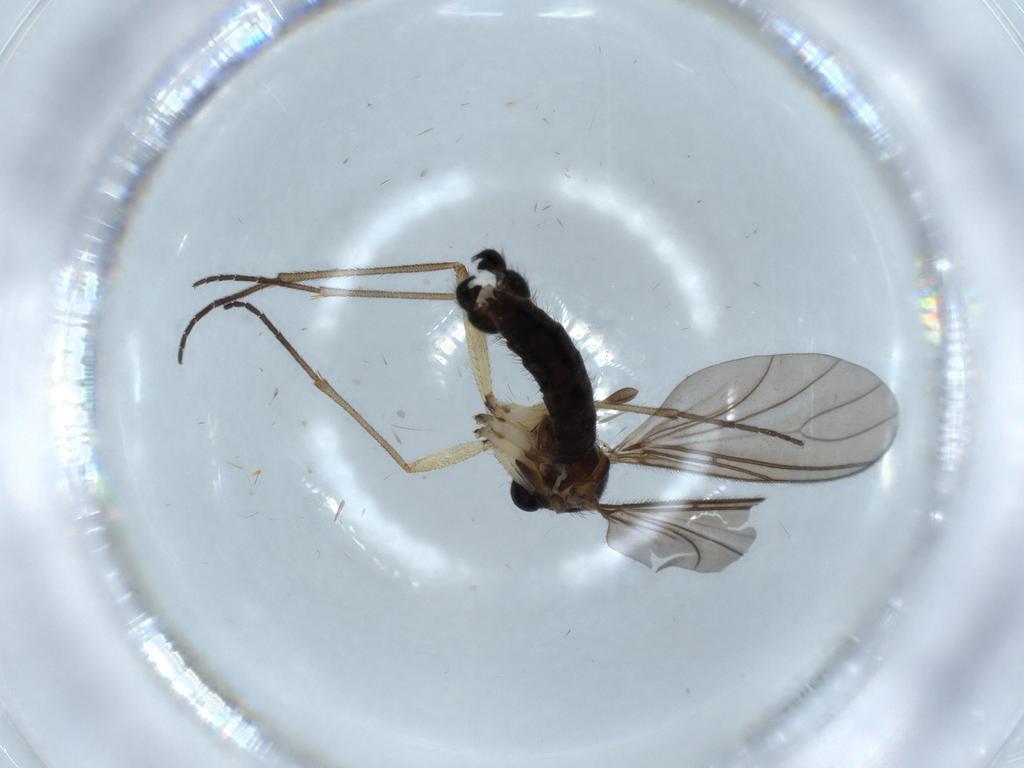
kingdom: Animalia
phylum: Arthropoda
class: Insecta
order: Diptera
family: Sciaridae
